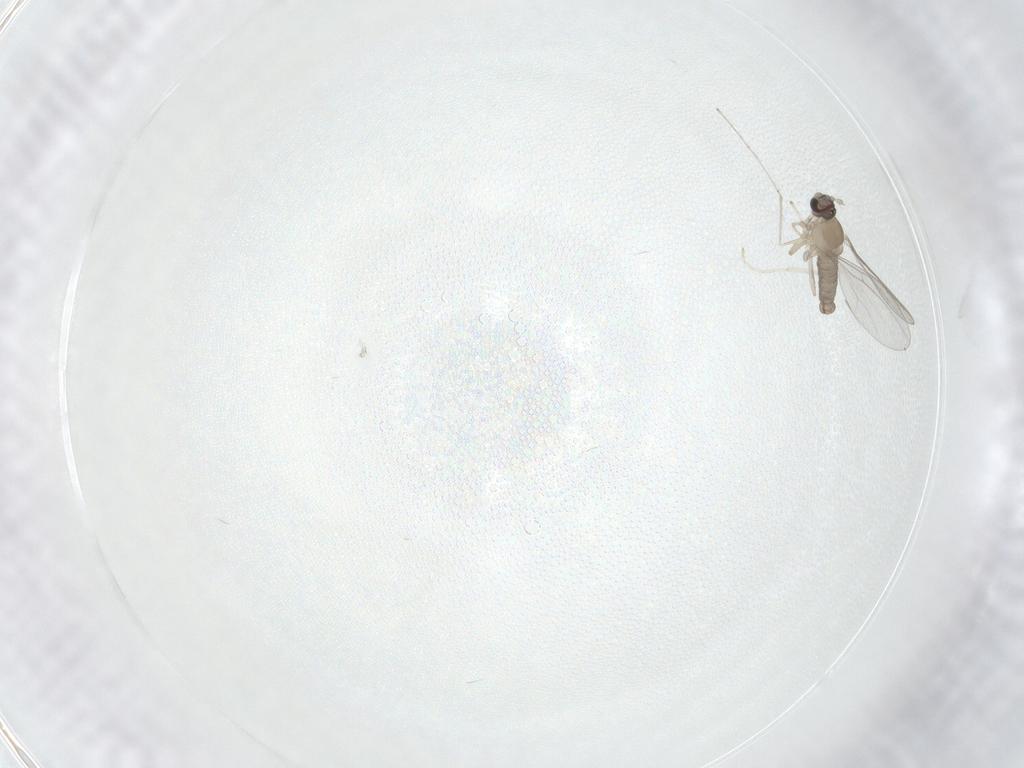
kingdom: Animalia
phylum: Arthropoda
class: Insecta
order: Diptera
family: Cecidomyiidae
